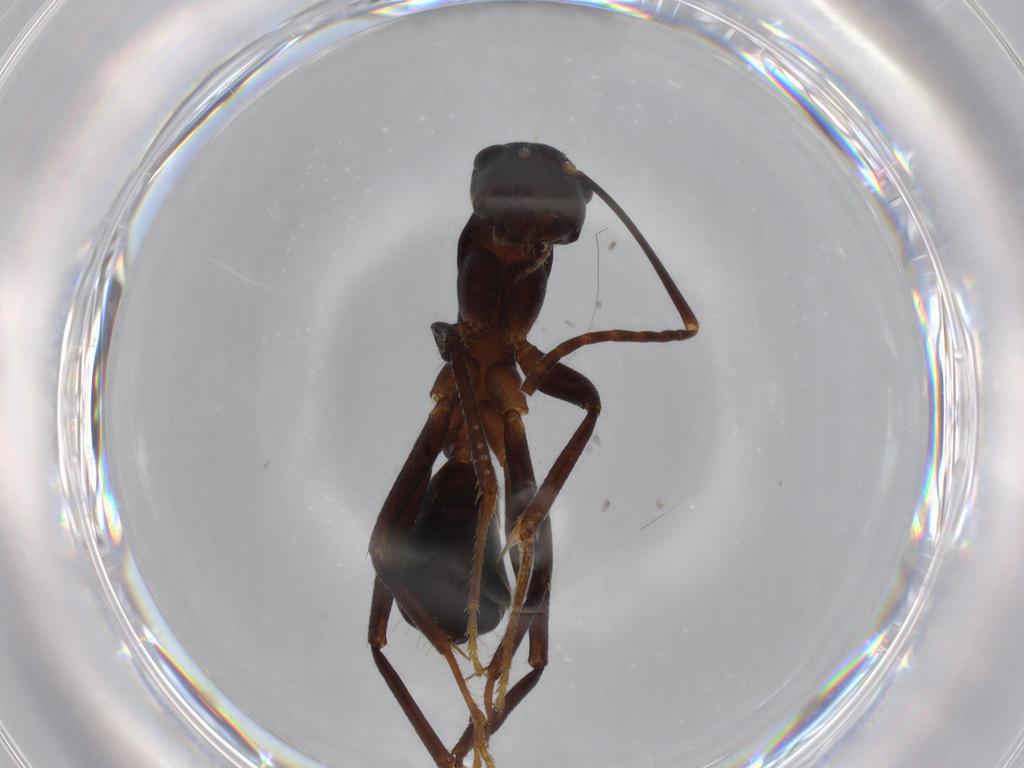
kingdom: Animalia
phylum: Arthropoda
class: Insecta
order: Hymenoptera
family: Formicidae
